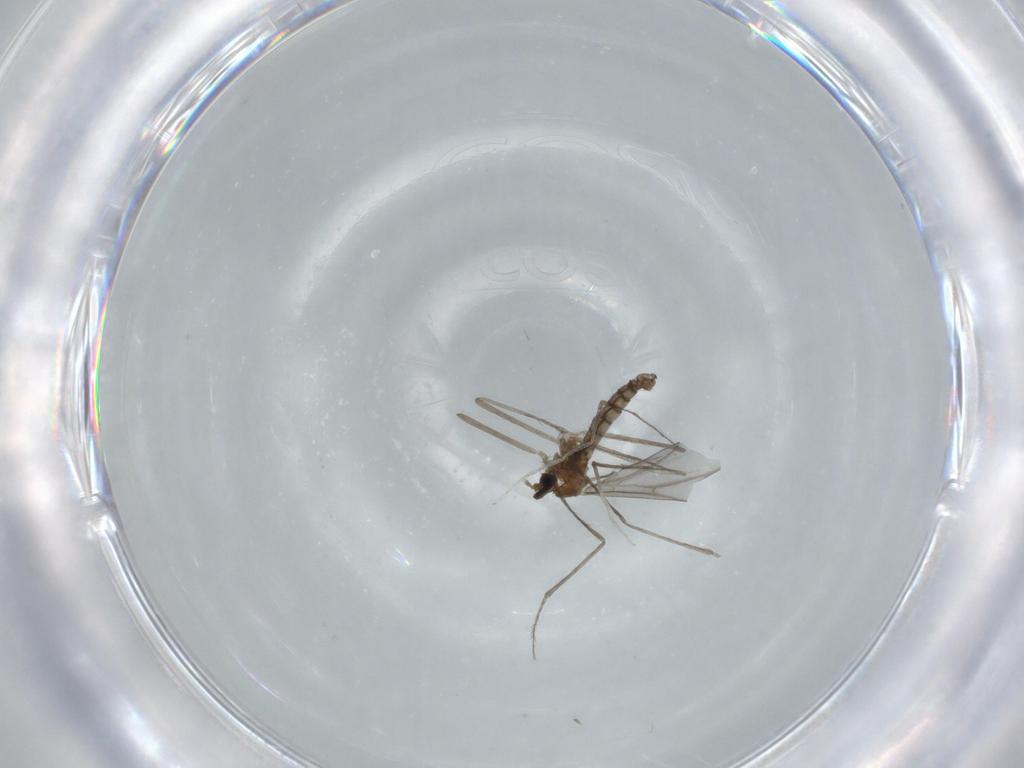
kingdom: Animalia
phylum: Arthropoda
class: Insecta
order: Diptera
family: Cecidomyiidae
